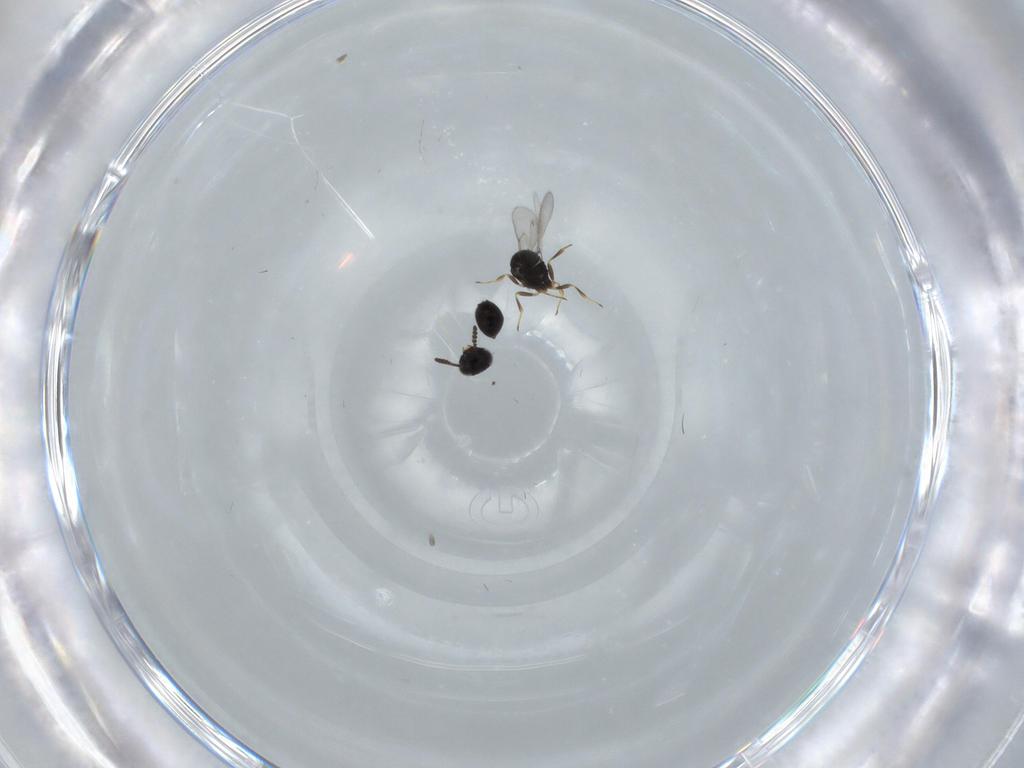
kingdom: Animalia
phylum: Arthropoda
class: Insecta
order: Hymenoptera
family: Scelionidae
